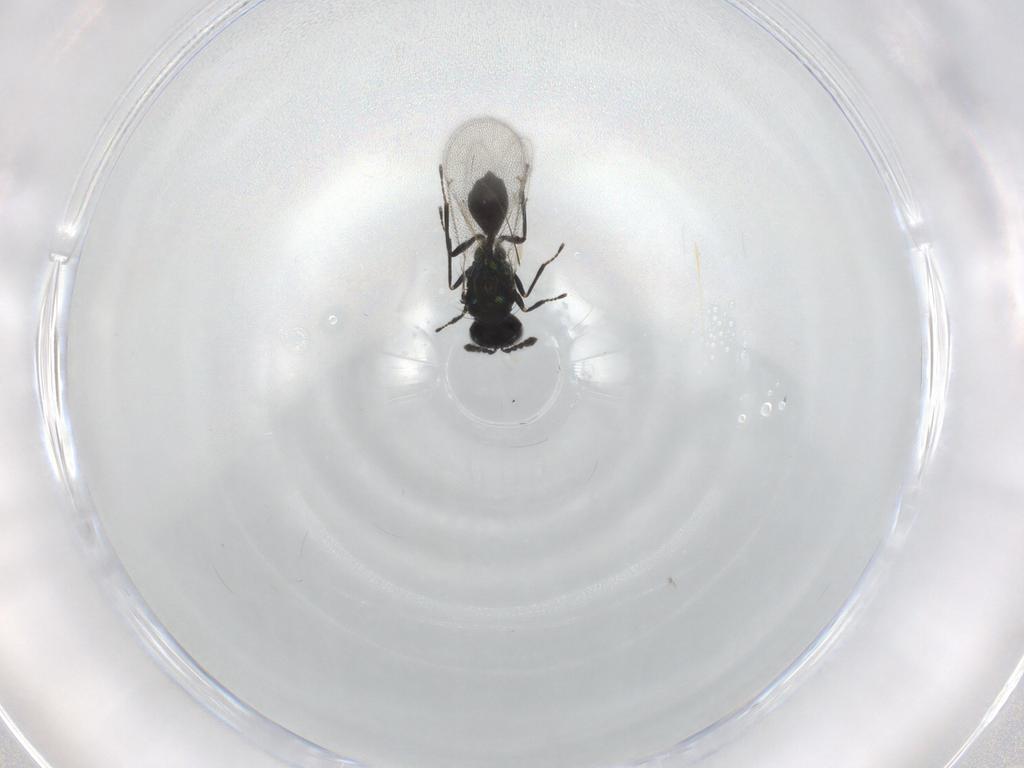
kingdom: Animalia
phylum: Arthropoda
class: Insecta
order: Hymenoptera
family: Eulophidae
